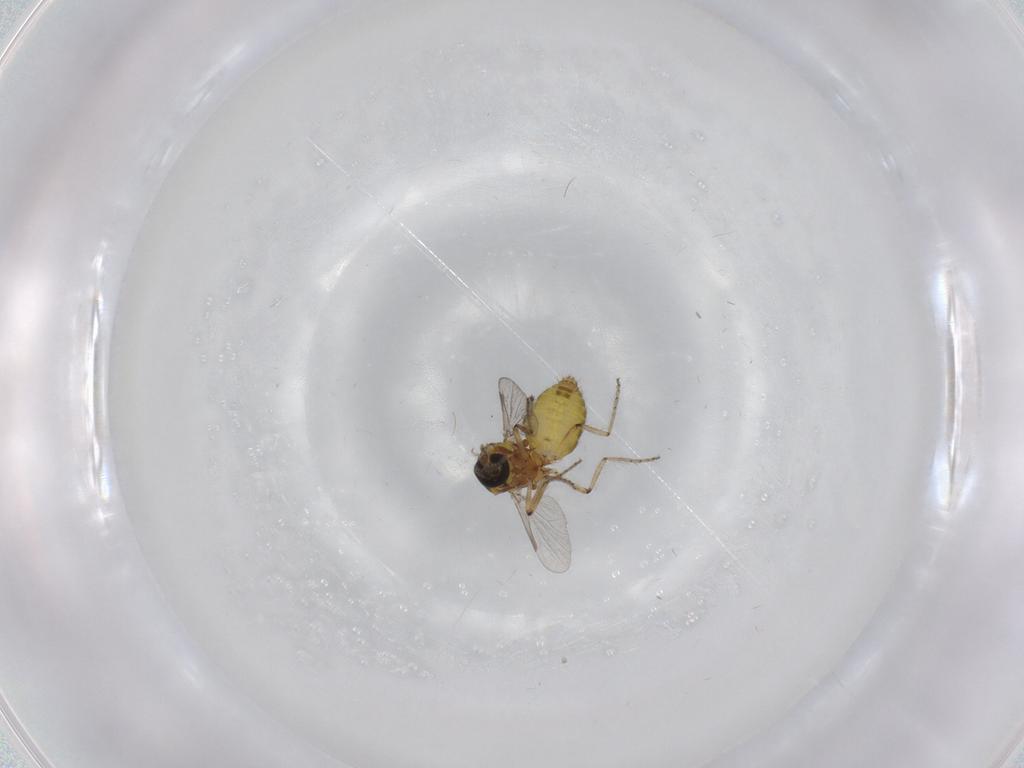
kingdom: Animalia
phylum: Arthropoda
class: Insecta
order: Diptera
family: Ceratopogonidae
